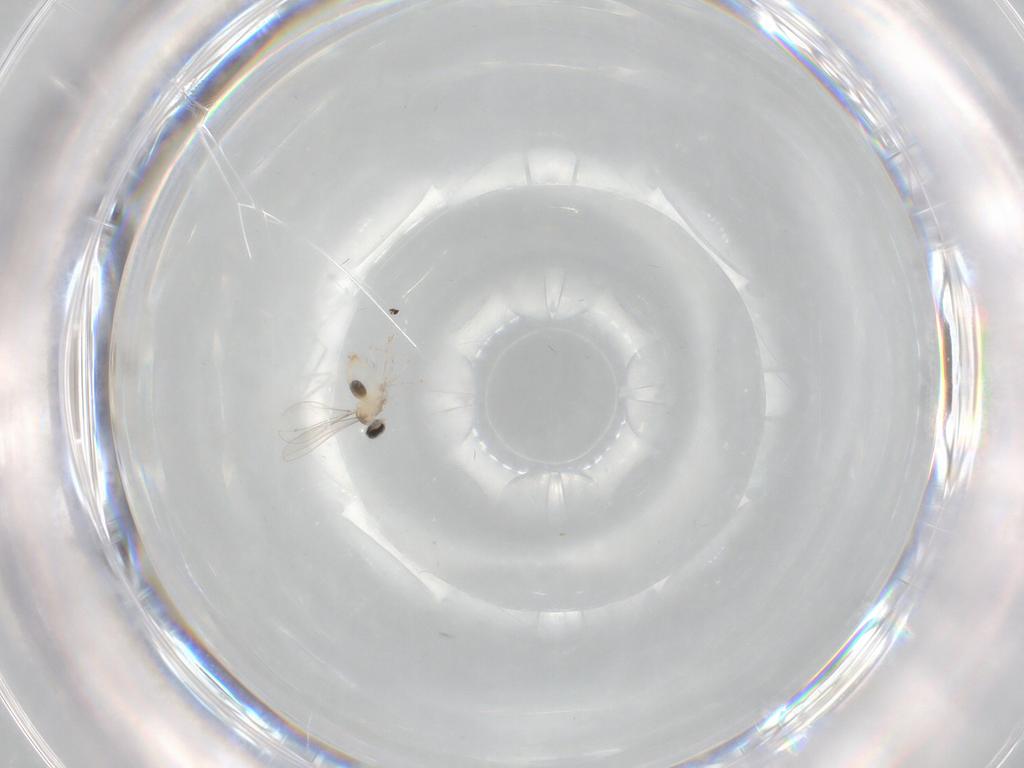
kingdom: Animalia
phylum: Arthropoda
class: Insecta
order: Diptera
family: Cecidomyiidae
